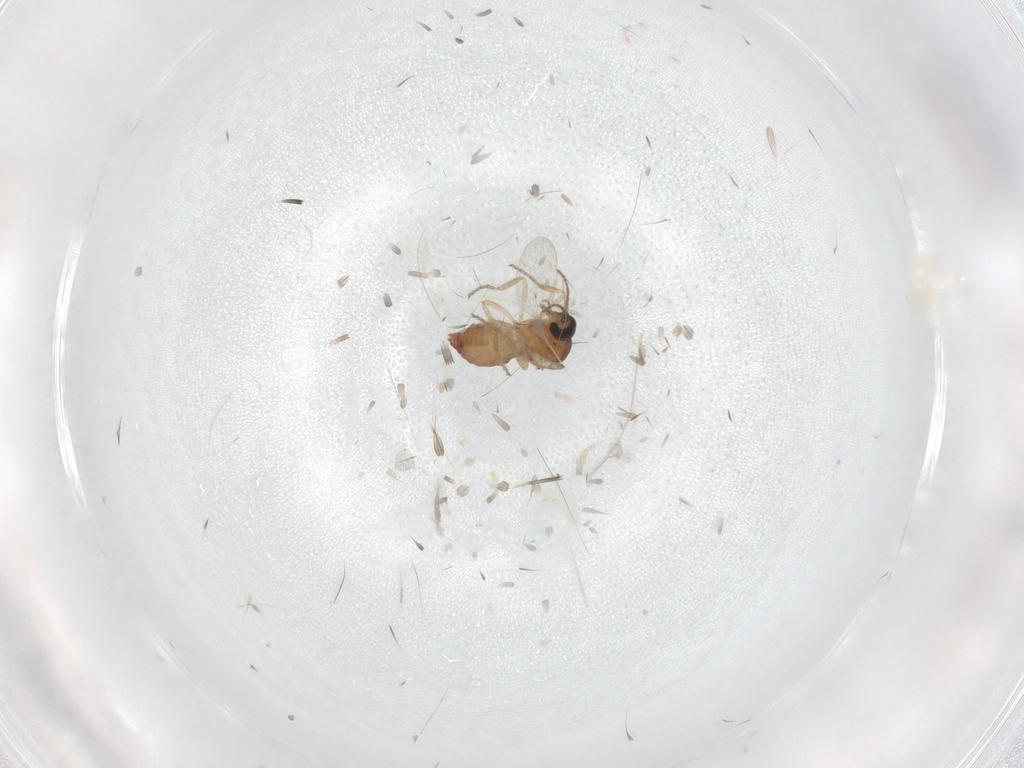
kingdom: Animalia
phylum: Arthropoda
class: Insecta
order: Diptera
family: Ceratopogonidae
